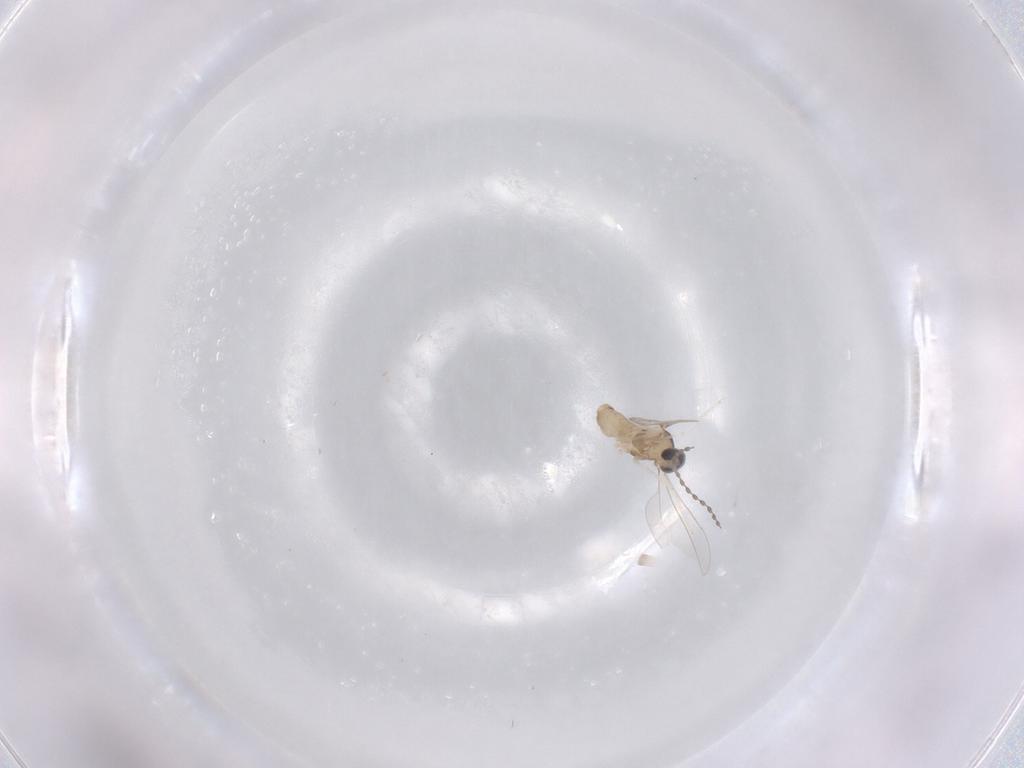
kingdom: Animalia
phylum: Arthropoda
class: Insecta
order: Diptera
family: Cecidomyiidae
